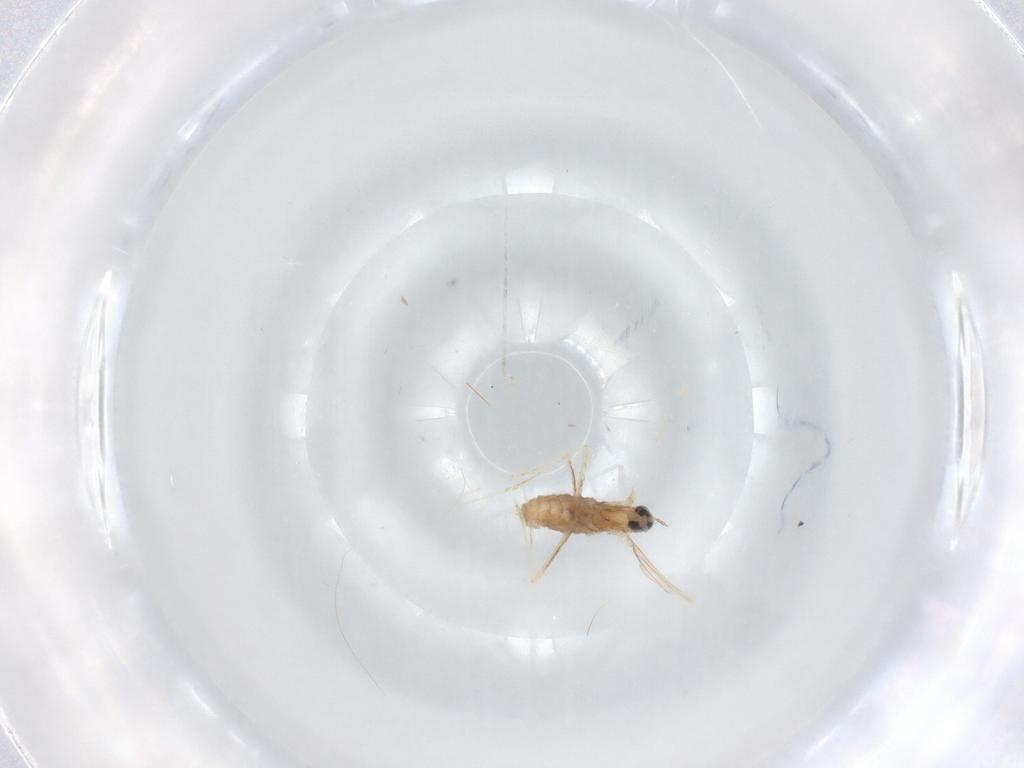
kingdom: Animalia
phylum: Arthropoda
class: Insecta
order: Diptera
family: Cecidomyiidae
